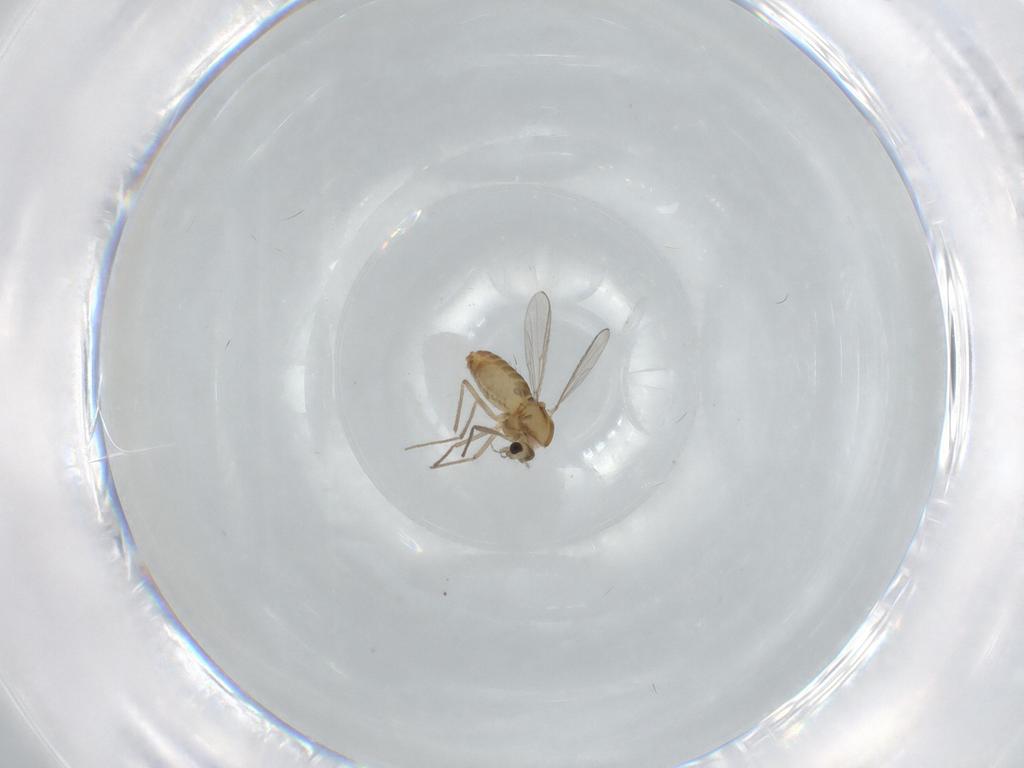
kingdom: Animalia
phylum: Arthropoda
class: Insecta
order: Diptera
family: Chironomidae
